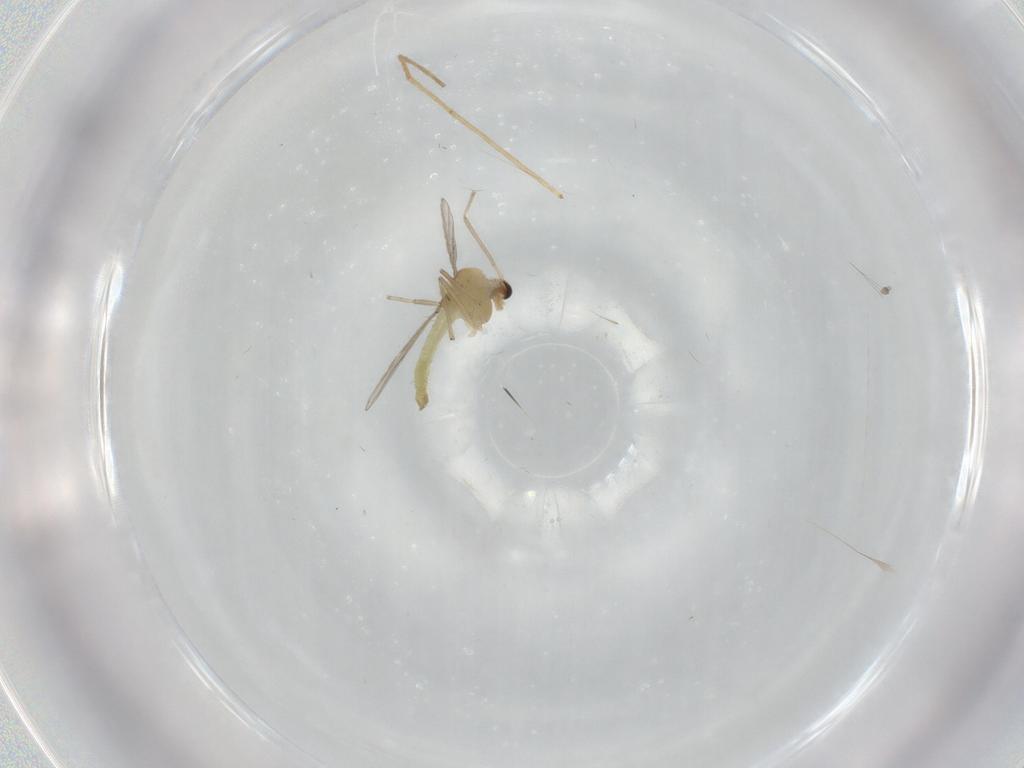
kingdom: Animalia
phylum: Arthropoda
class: Insecta
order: Diptera
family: Chironomidae
